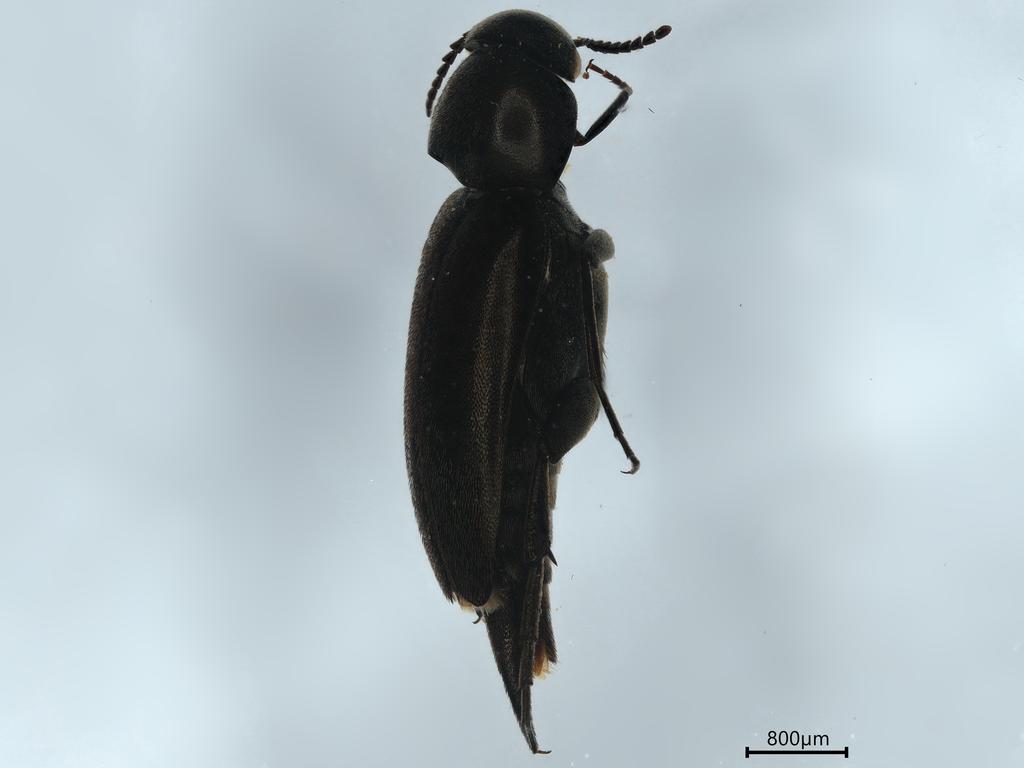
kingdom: Animalia
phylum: Arthropoda
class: Insecta
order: Coleoptera
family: Mordellidae
